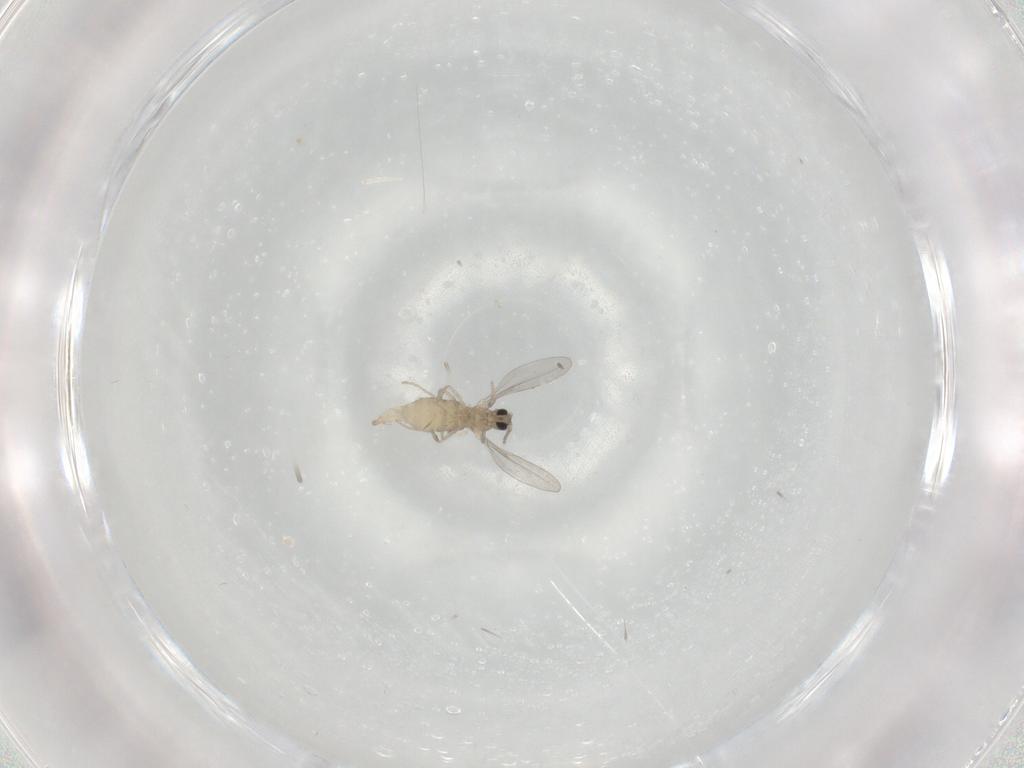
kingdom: Animalia
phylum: Arthropoda
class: Insecta
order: Diptera
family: Cecidomyiidae
